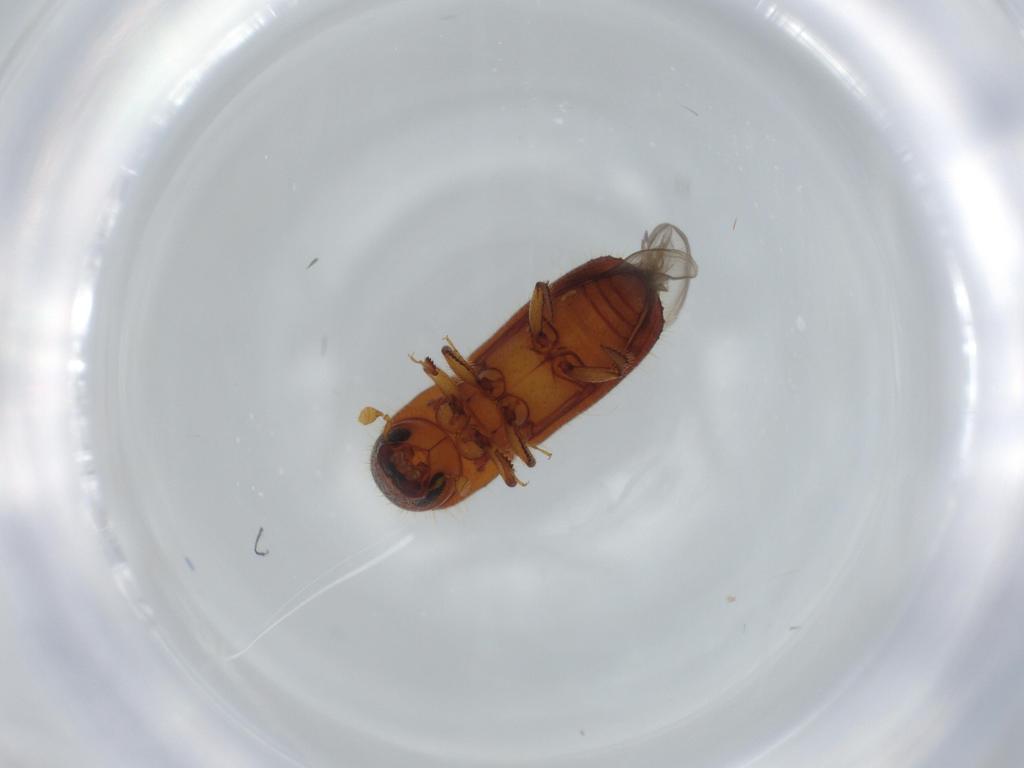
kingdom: Animalia
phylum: Arthropoda
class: Insecta
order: Coleoptera
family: Curculionidae
